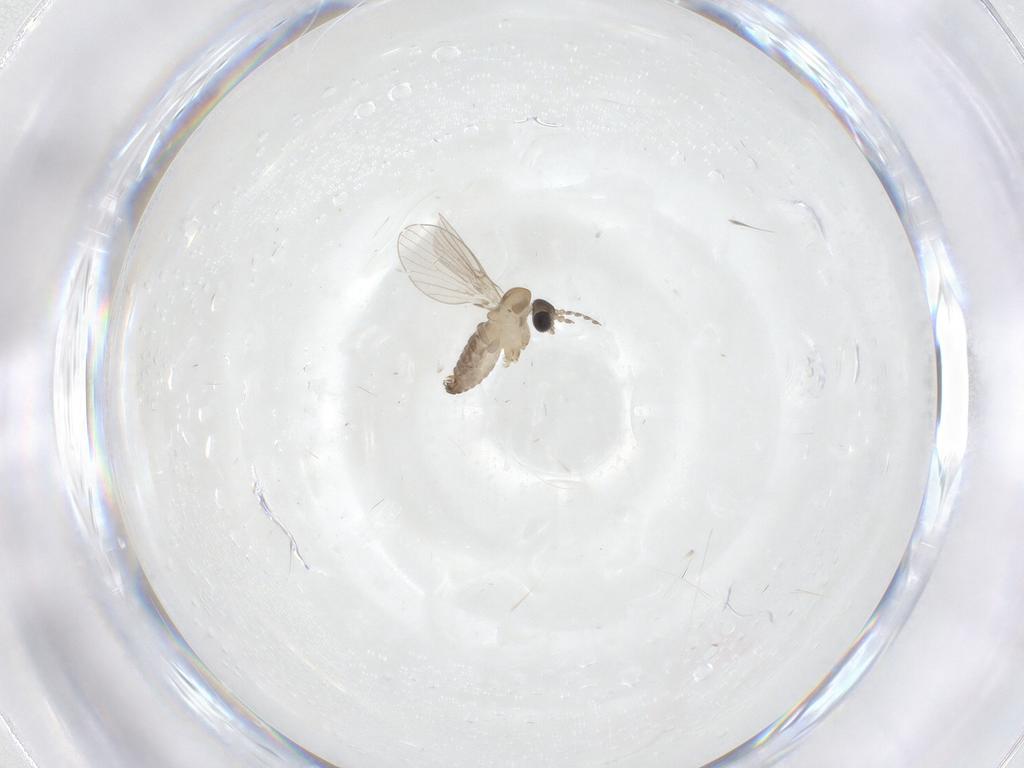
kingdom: Animalia
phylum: Arthropoda
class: Insecta
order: Diptera
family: Psychodidae
